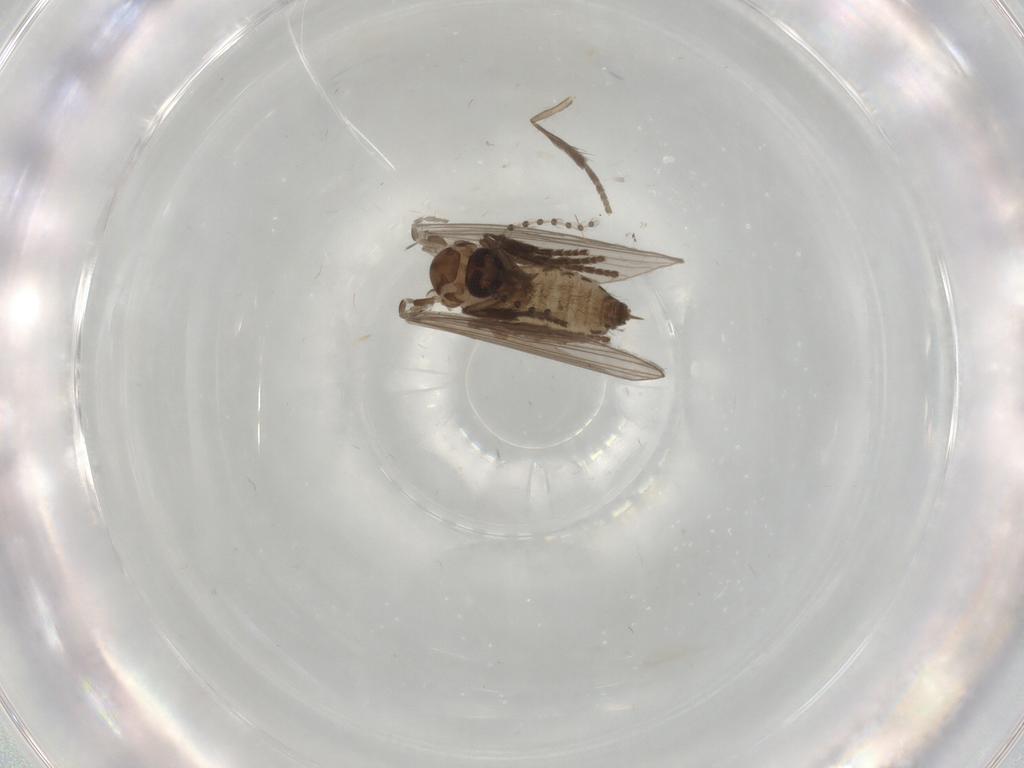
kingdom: Animalia
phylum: Arthropoda
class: Insecta
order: Diptera
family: Psychodidae
